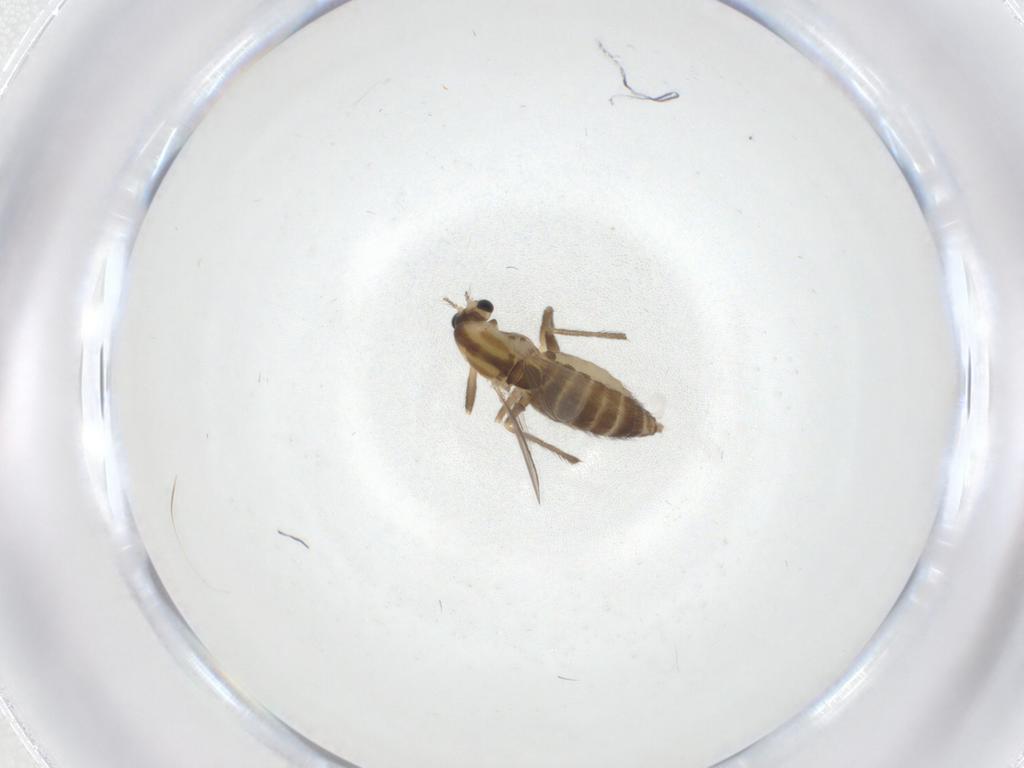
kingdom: Animalia
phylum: Arthropoda
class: Insecta
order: Diptera
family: Chironomidae
